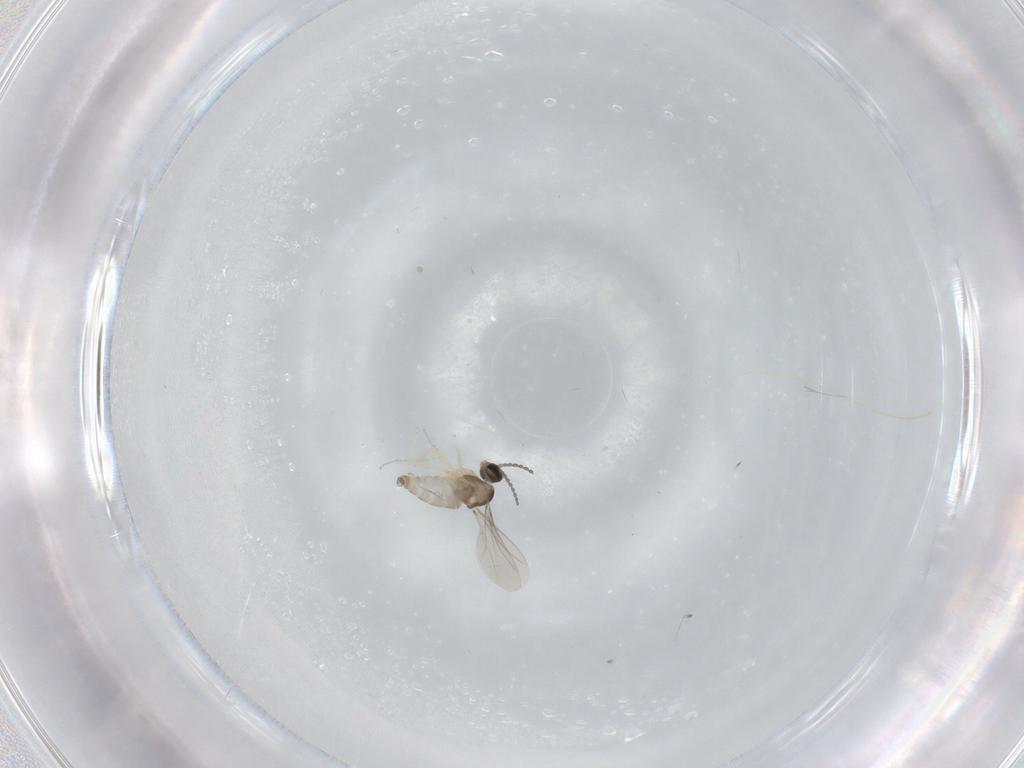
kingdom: Animalia
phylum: Arthropoda
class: Insecta
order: Diptera
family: Cecidomyiidae
